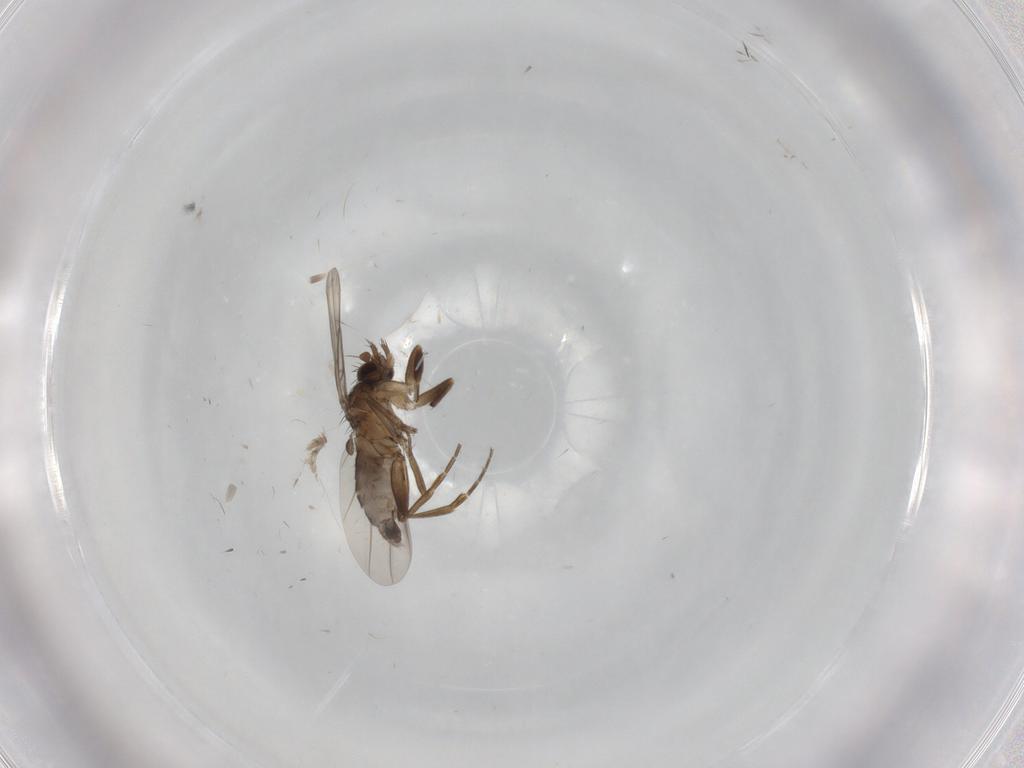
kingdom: Animalia
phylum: Arthropoda
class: Insecta
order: Diptera
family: Phoridae
